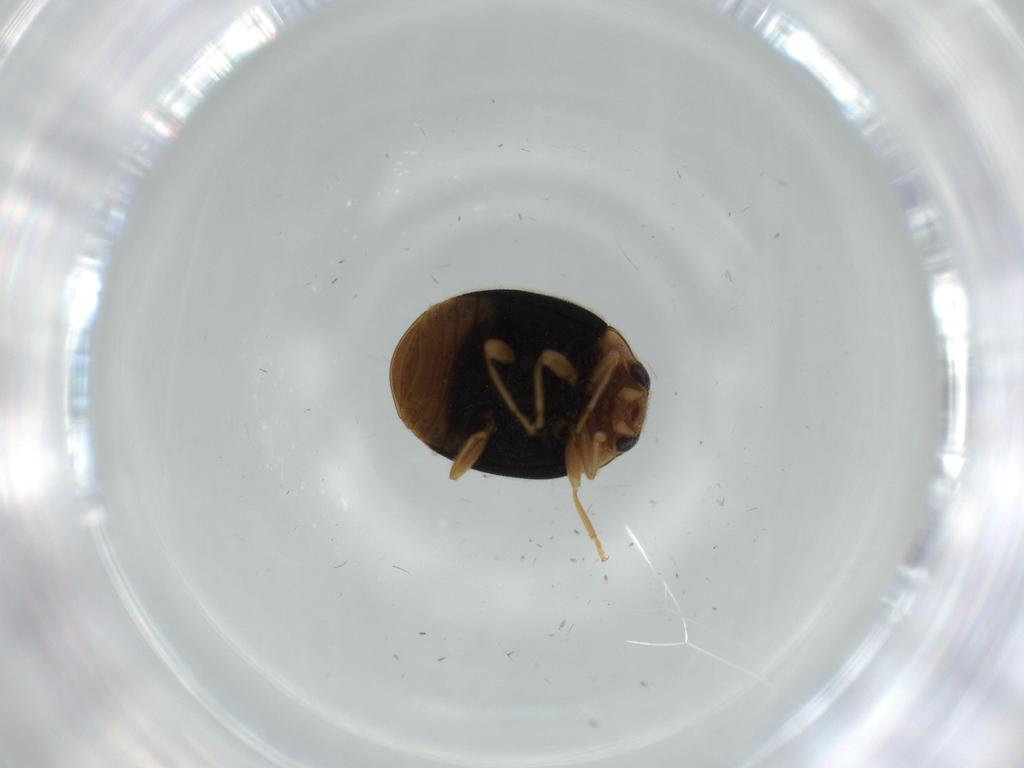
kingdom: Animalia
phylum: Arthropoda
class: Insecta
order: Coleoptera
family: Coccinellidae
